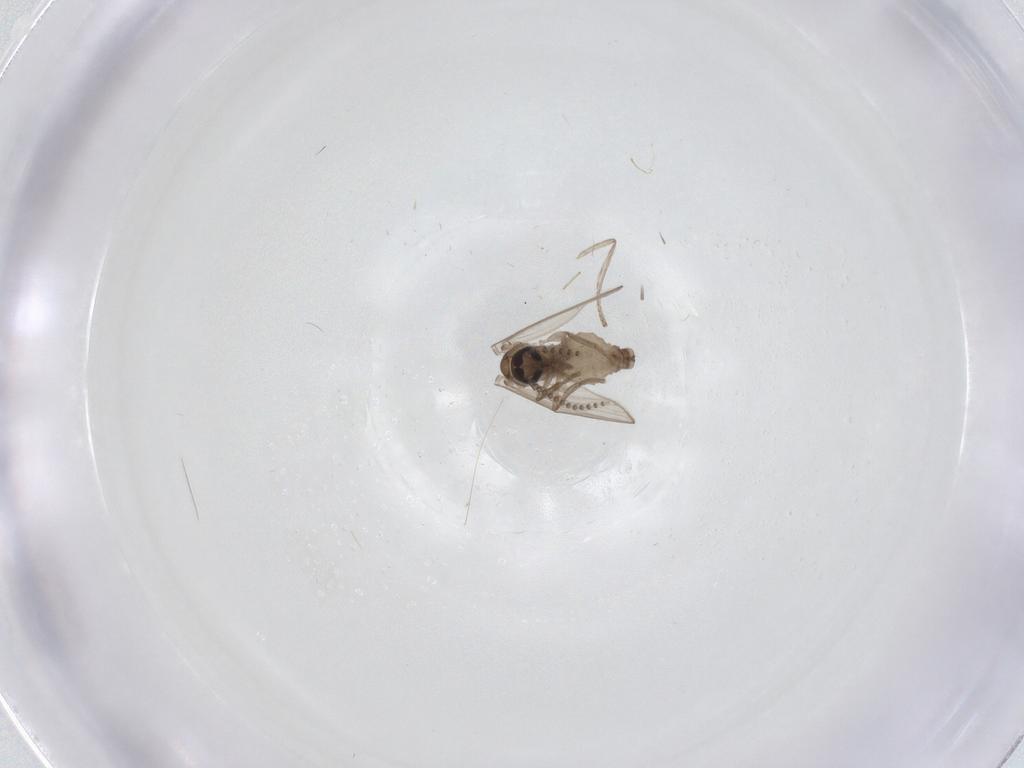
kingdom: Animalia
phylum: Arthropoda
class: Insecta
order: Diptera
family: Psychodidae
